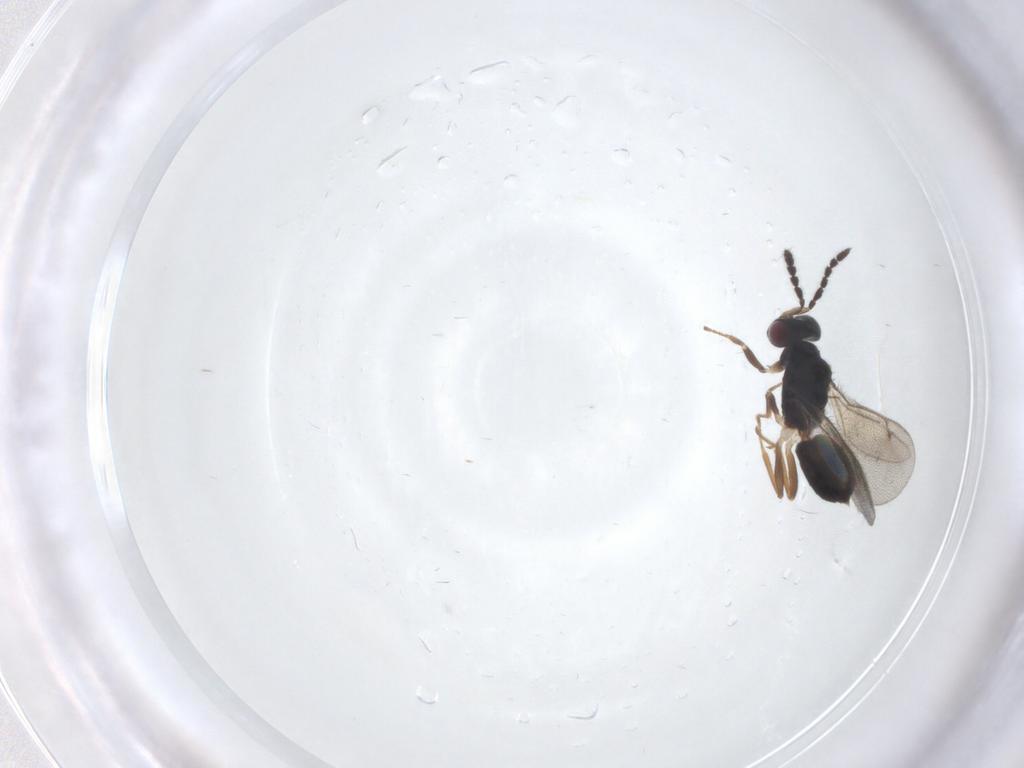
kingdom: Animalia
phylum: Arthropoda
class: Insecta
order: Hymenoptera
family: Eulophidae
